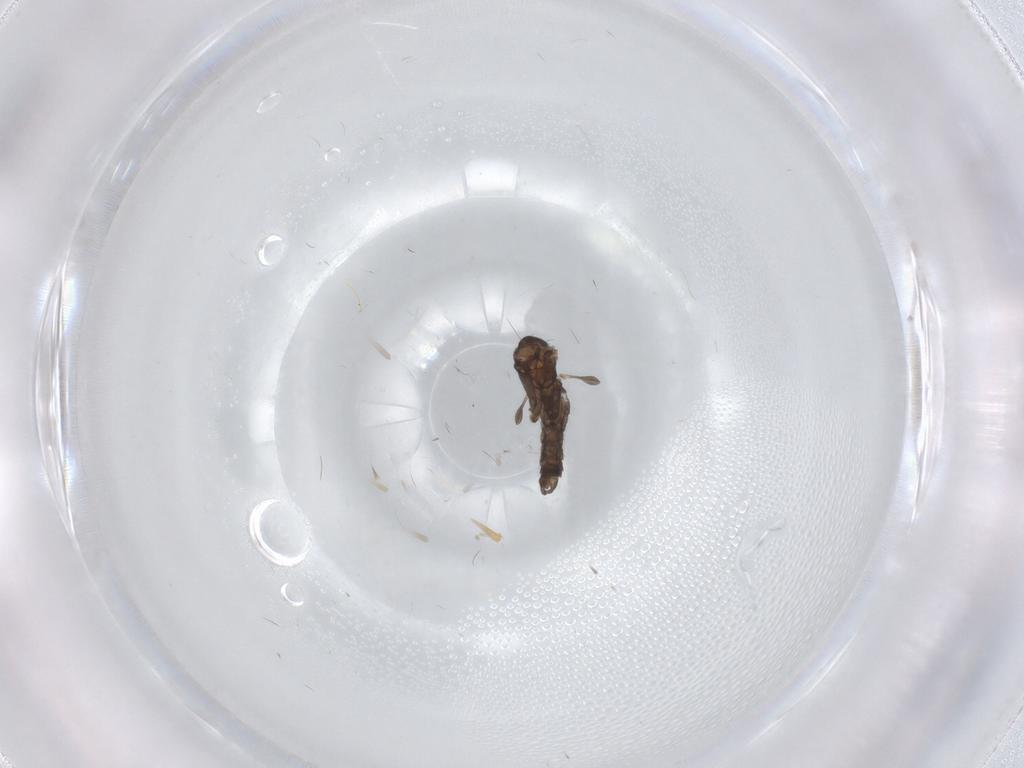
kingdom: Animalia
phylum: Arthropoda
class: Insecta
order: Diptera
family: Psychodidae
